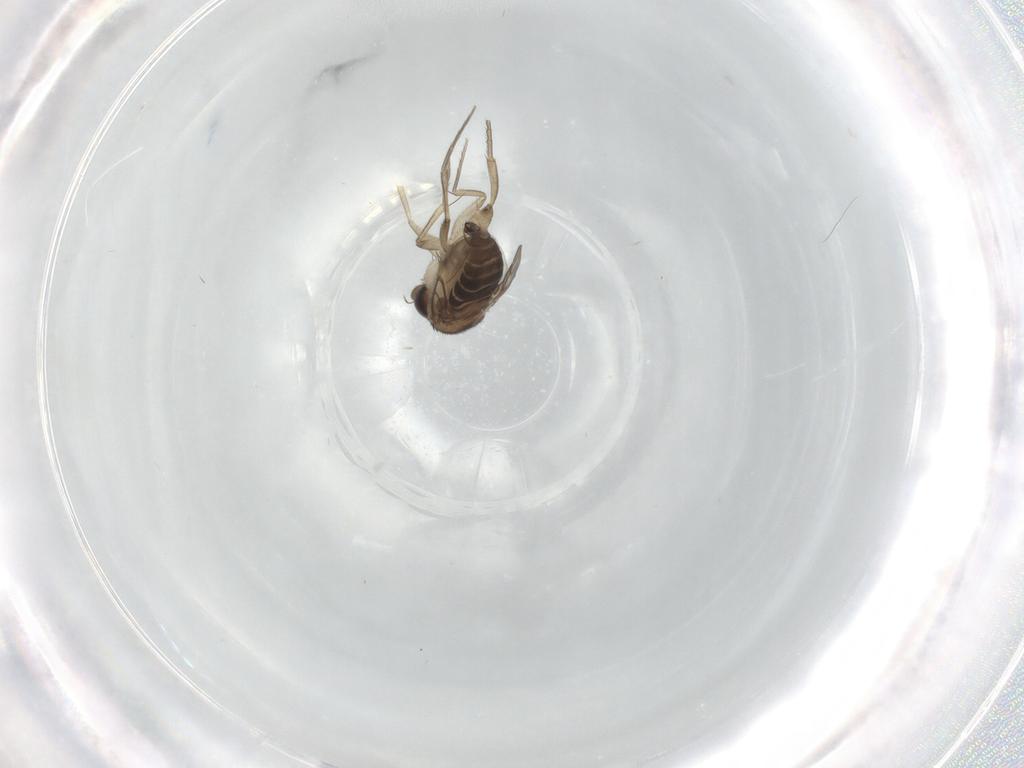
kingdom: Animalia
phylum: Arthropoda
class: Insecta
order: Diptera
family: Phoridae
